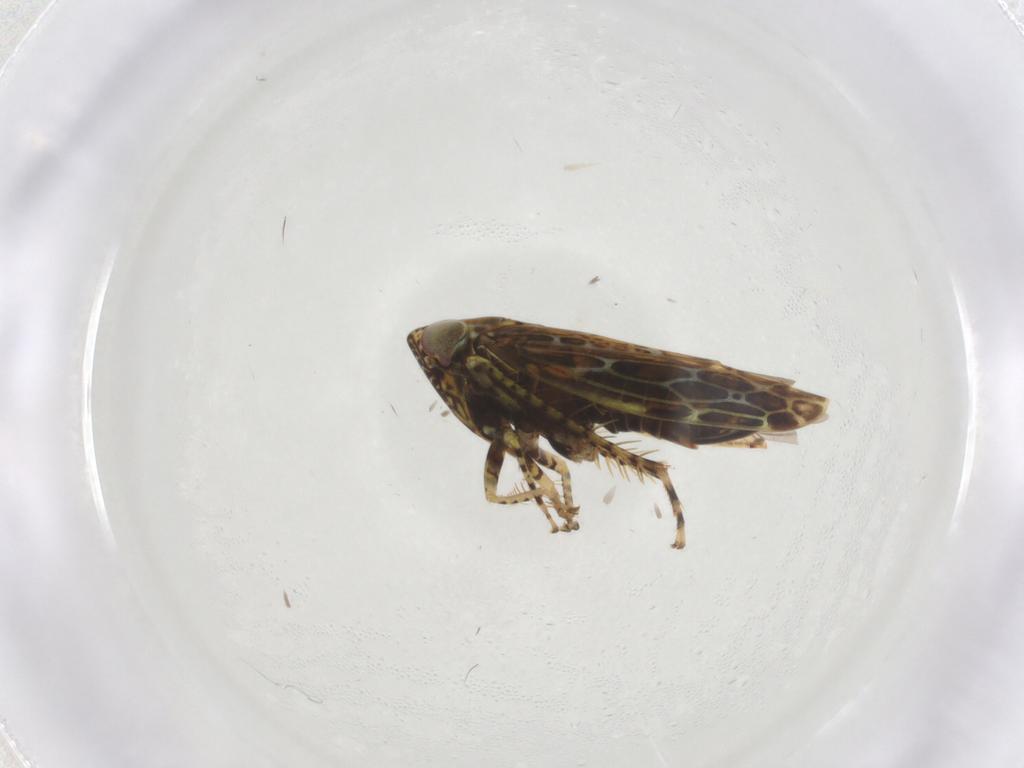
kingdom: Animalia
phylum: Arthropoda
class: Insecta
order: Hemiptera
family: Cicadellidae
